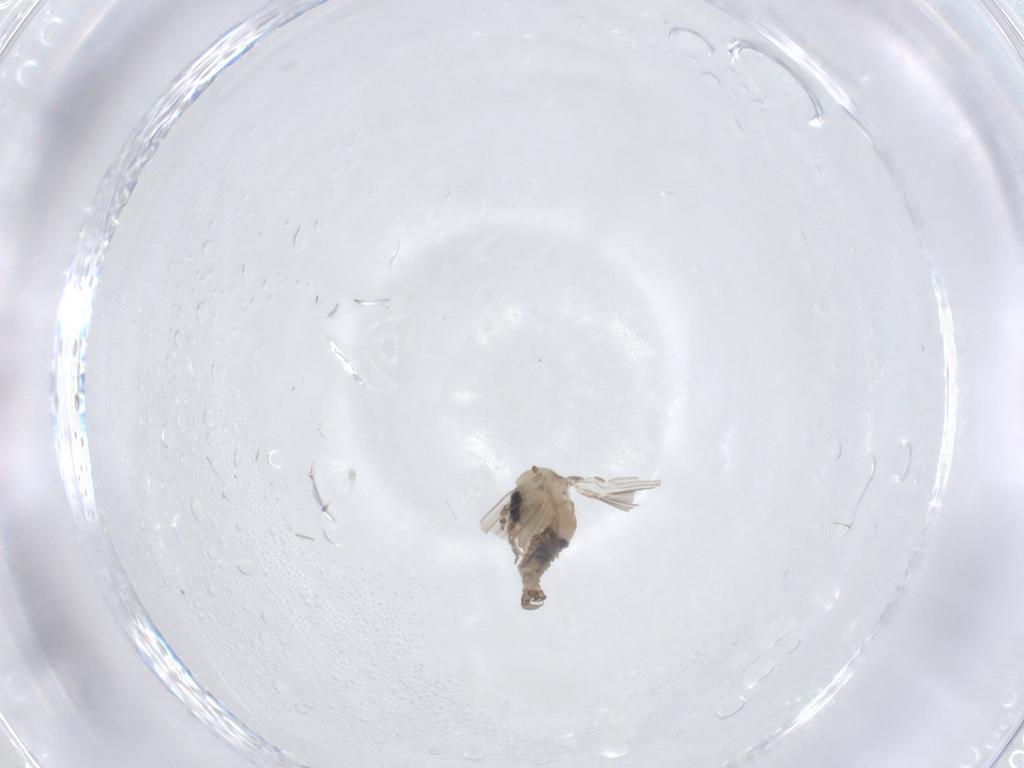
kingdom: Animalia
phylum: Arthropoda
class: Insecta
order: Diptera
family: Psychodidae
